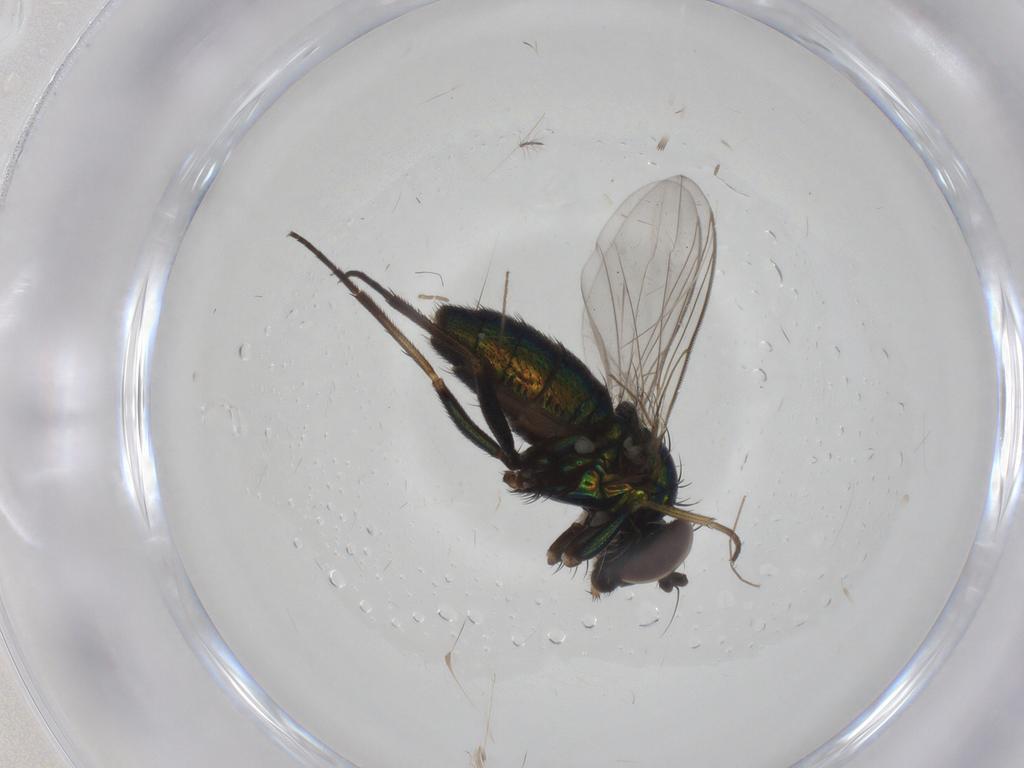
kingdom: Animalia
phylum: Arthropoda
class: Insecta
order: Diptera
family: Dolichopodidae
